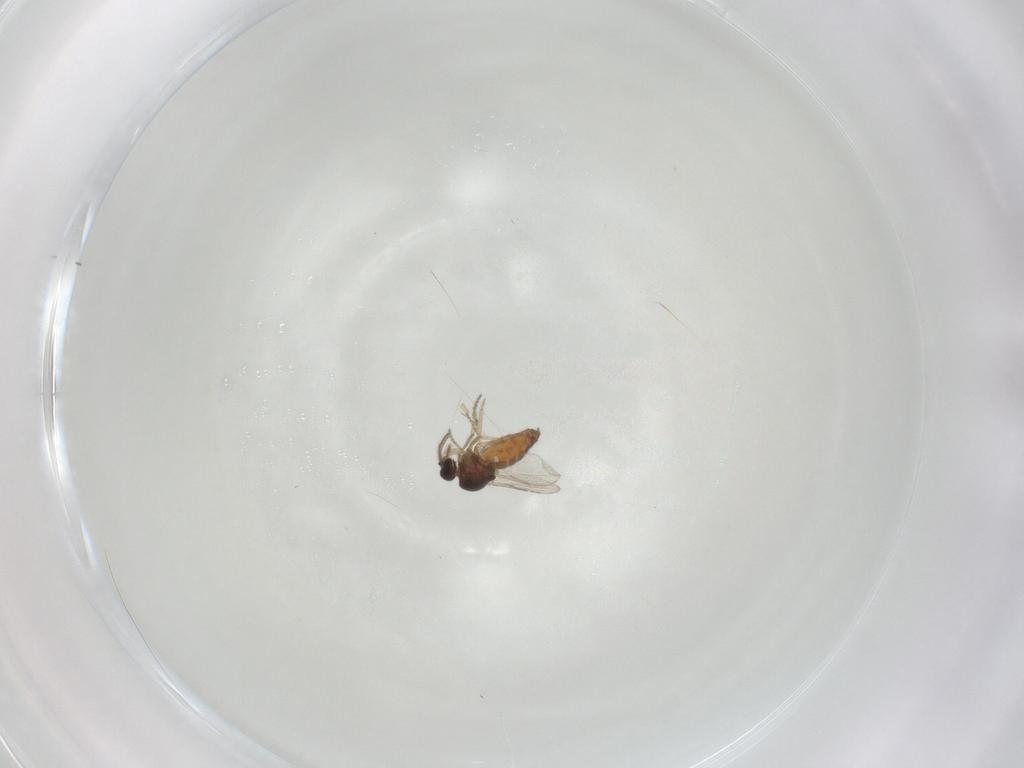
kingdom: Animalia
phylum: Arthropoda
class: Insecta
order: Diptera
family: Ceratopogonidae
